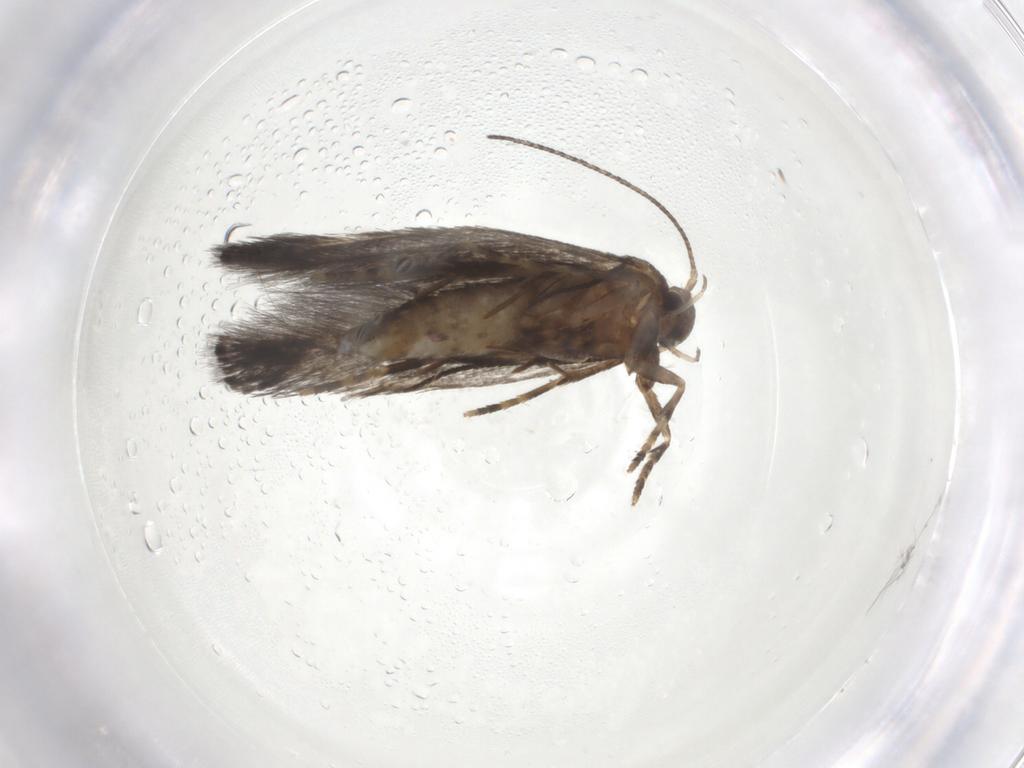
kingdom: Animalia
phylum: Arthropoda
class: Insecta
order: Lepidoptera
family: Elachistidae
